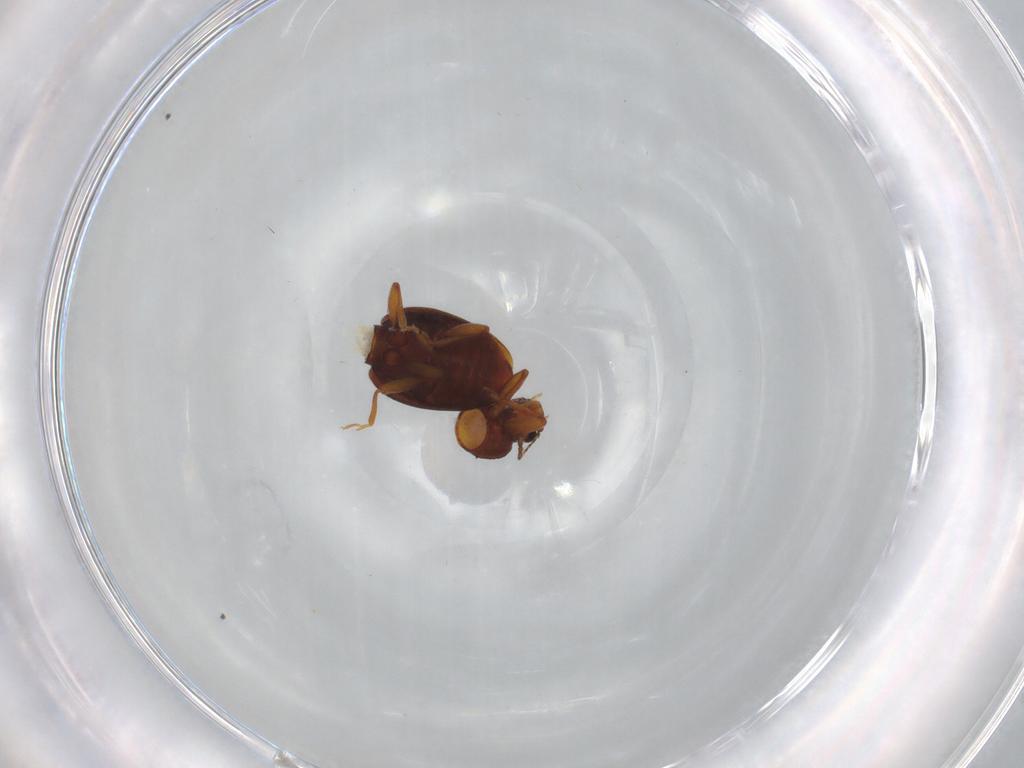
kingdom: Animalia
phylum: Arthropoda
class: Insecta
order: Coleoptera
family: Latridiidae
